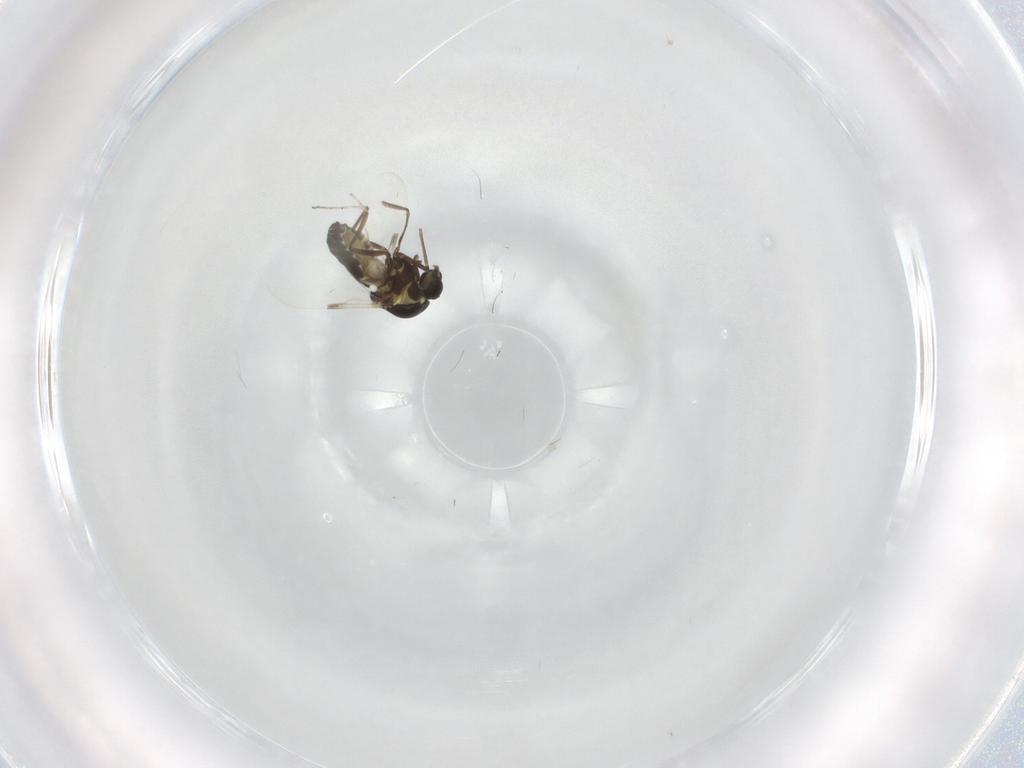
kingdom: Animalia
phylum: Arthropoda
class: Insecta
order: Diptera
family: Ceratopogonidae
